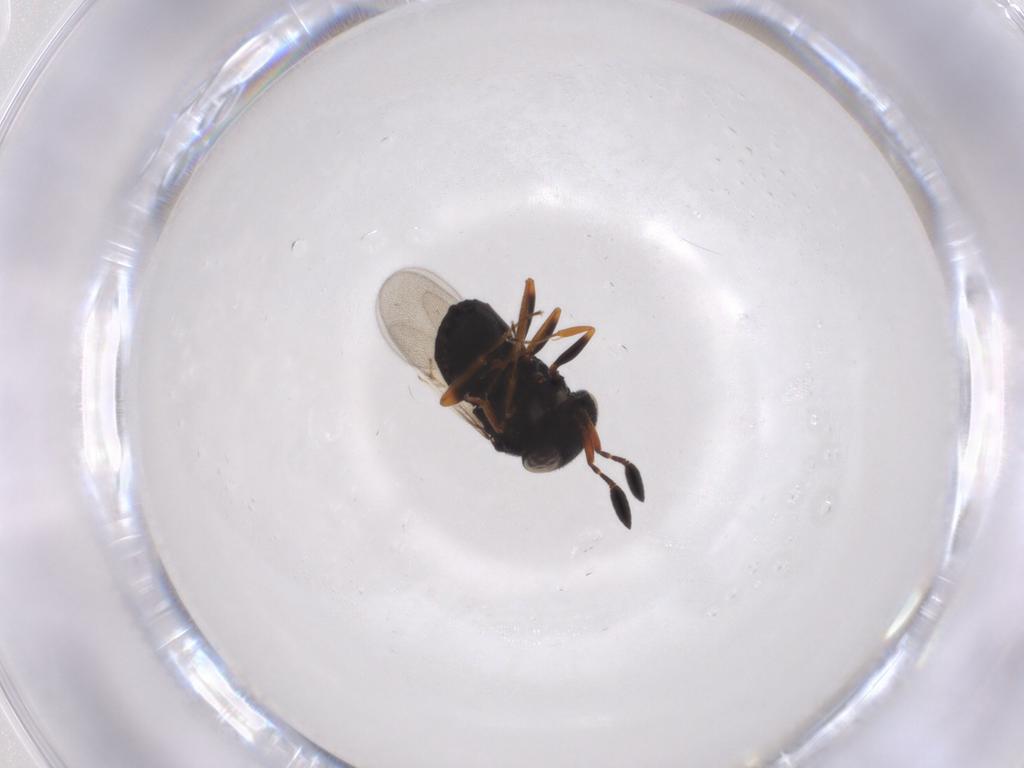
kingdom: Animalia
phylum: Arthropoda
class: Insecta
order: Hymenoptera
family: Scelionidae
